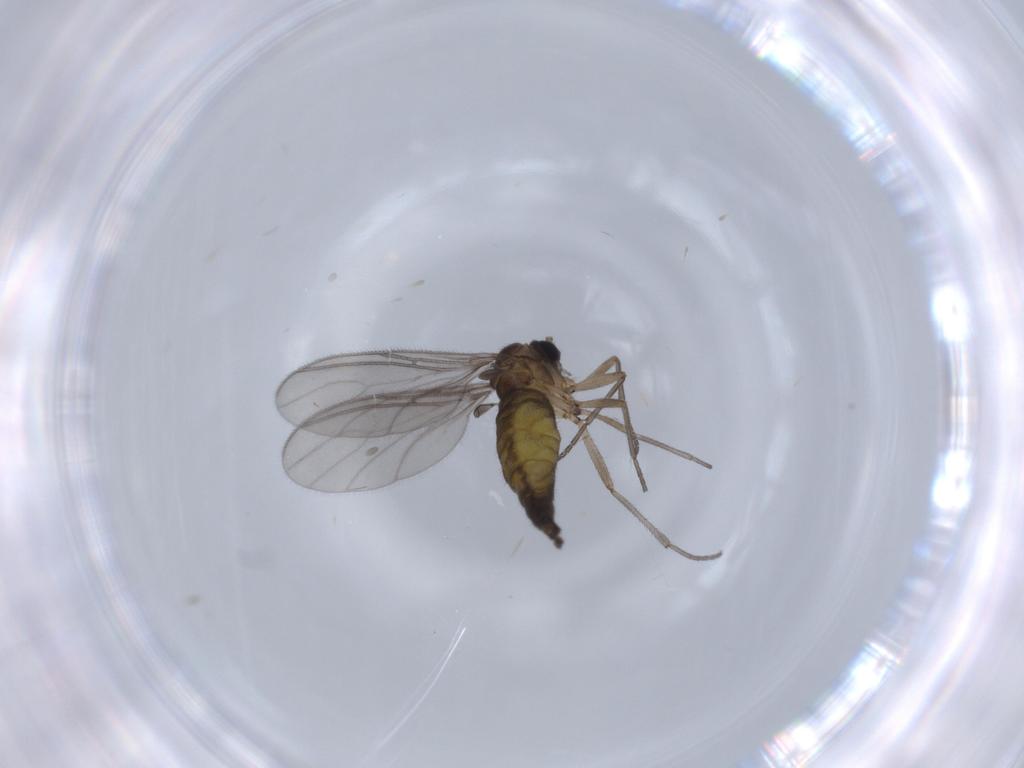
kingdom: Animalia
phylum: Arthropoda
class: Insecta
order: Diptera
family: Sciaridae
